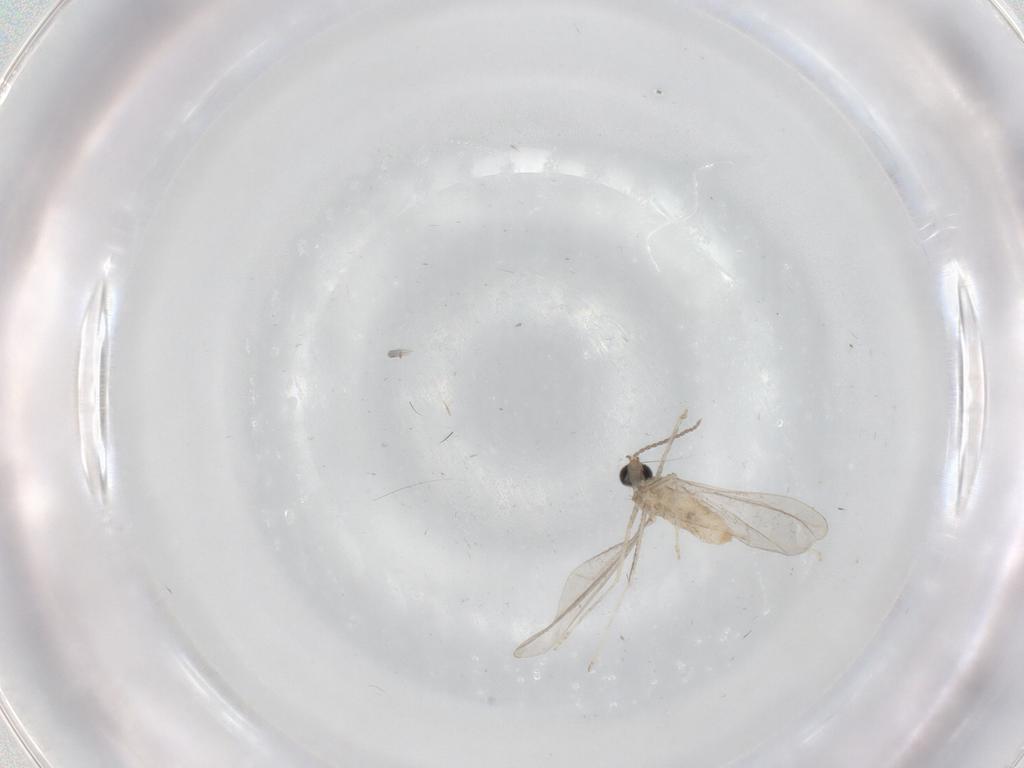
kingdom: Animalia
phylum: Arthropoda
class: Insecta
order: Diptera
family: Cecidomyiidae
